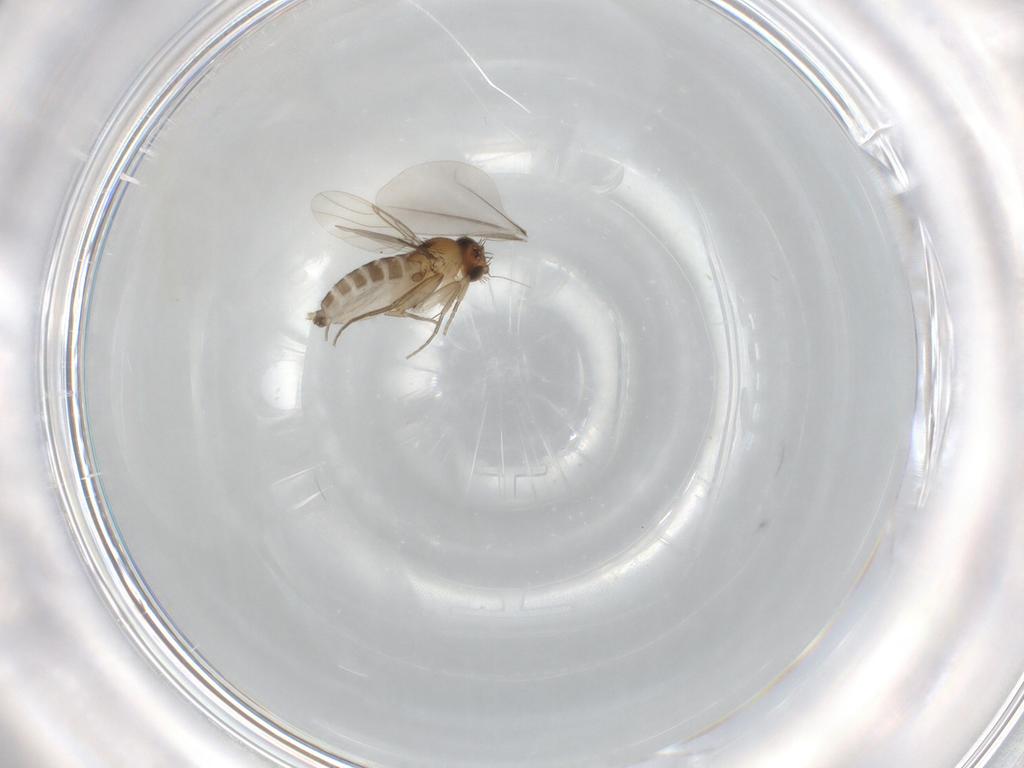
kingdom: Animalia
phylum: Arthropoda
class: Insecta
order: Diptera
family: Phoridae
